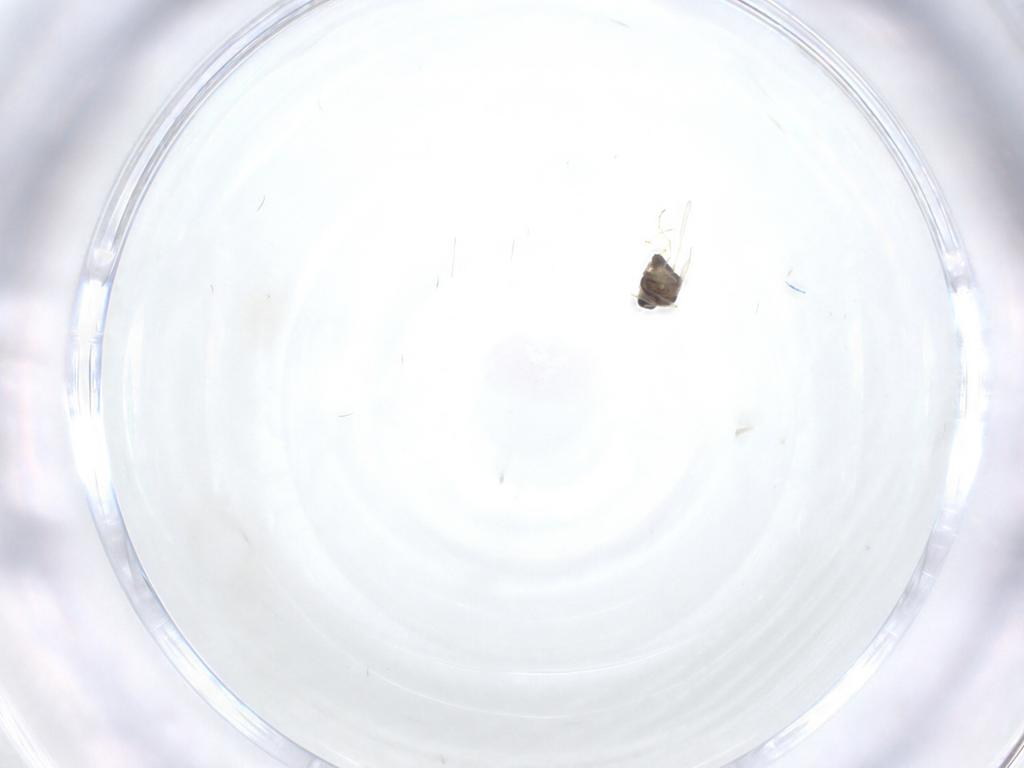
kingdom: Animalia
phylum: Arthropoda
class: Insecta
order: Diptera
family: Chironomidae
